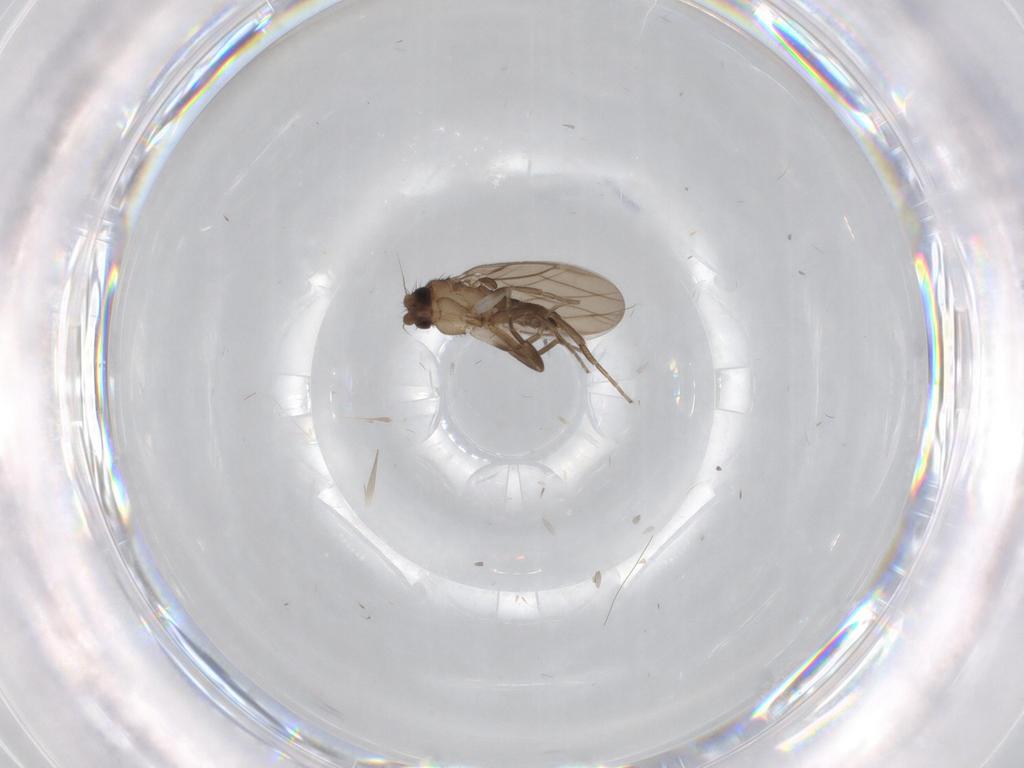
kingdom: Animalia
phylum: Arthropoda
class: Insecta
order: Diptera
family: Chironomidae
